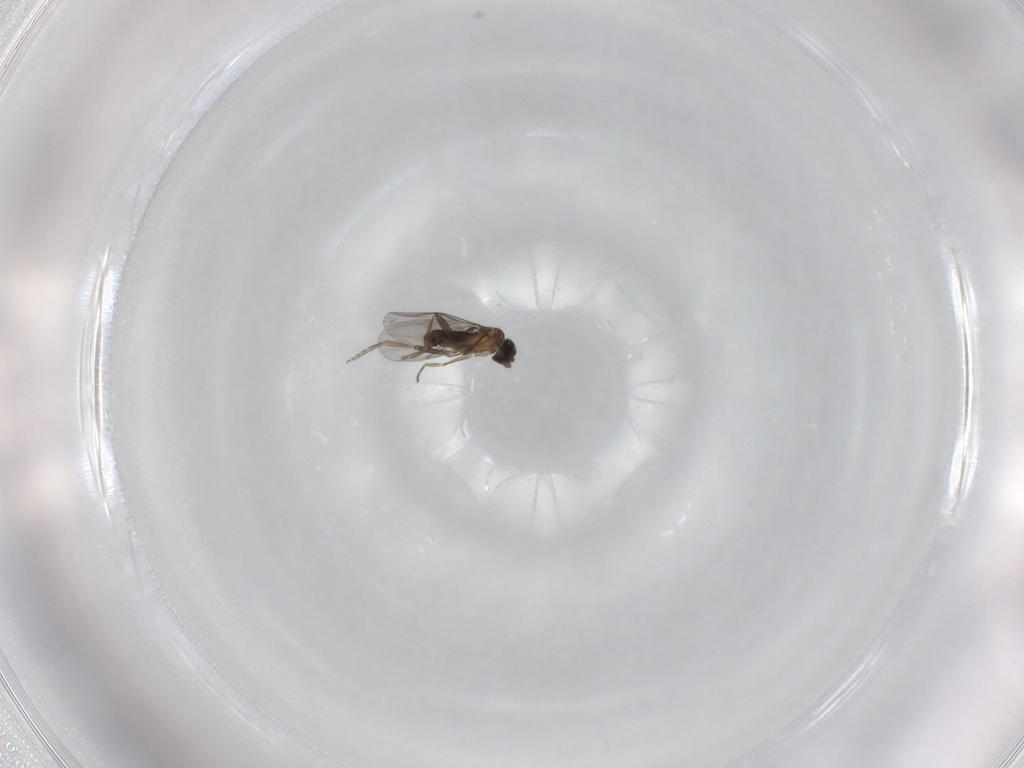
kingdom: Animalia
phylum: Arthropoda
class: Insecta
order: Diptera
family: Chironomidae
